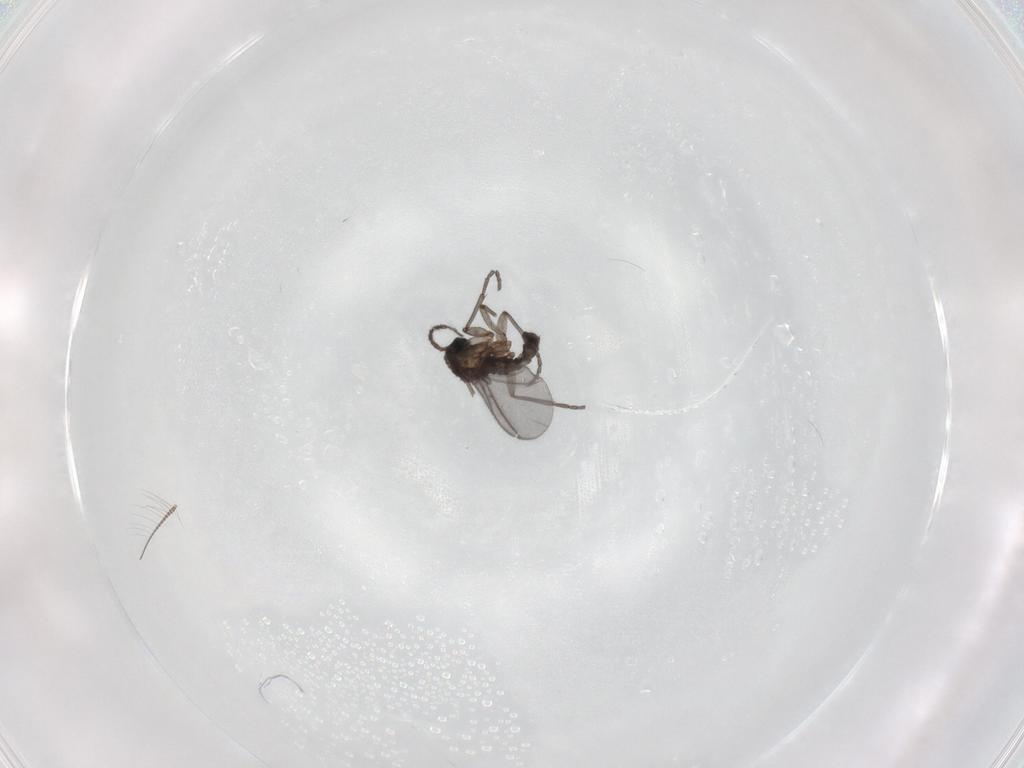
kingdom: Animalia
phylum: Arthropoda
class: Insecta
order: Diptera
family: Sciaridae
